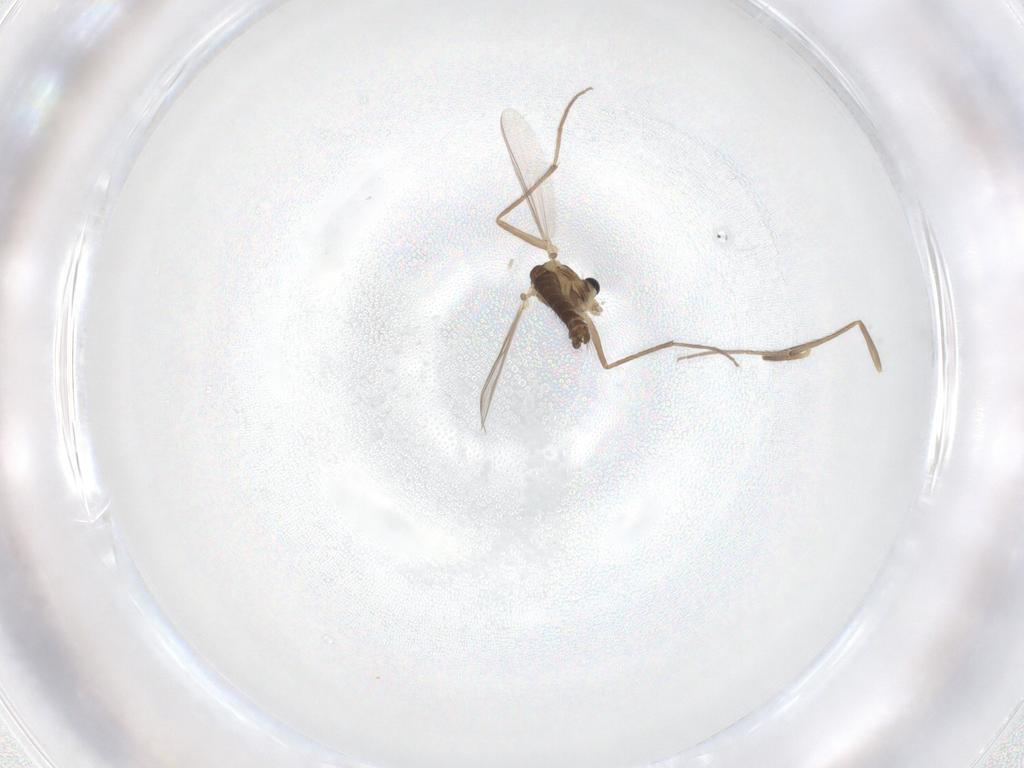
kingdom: Animalia
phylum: Arthropoda
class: Insecta
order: Diptera
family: Chironomidae
